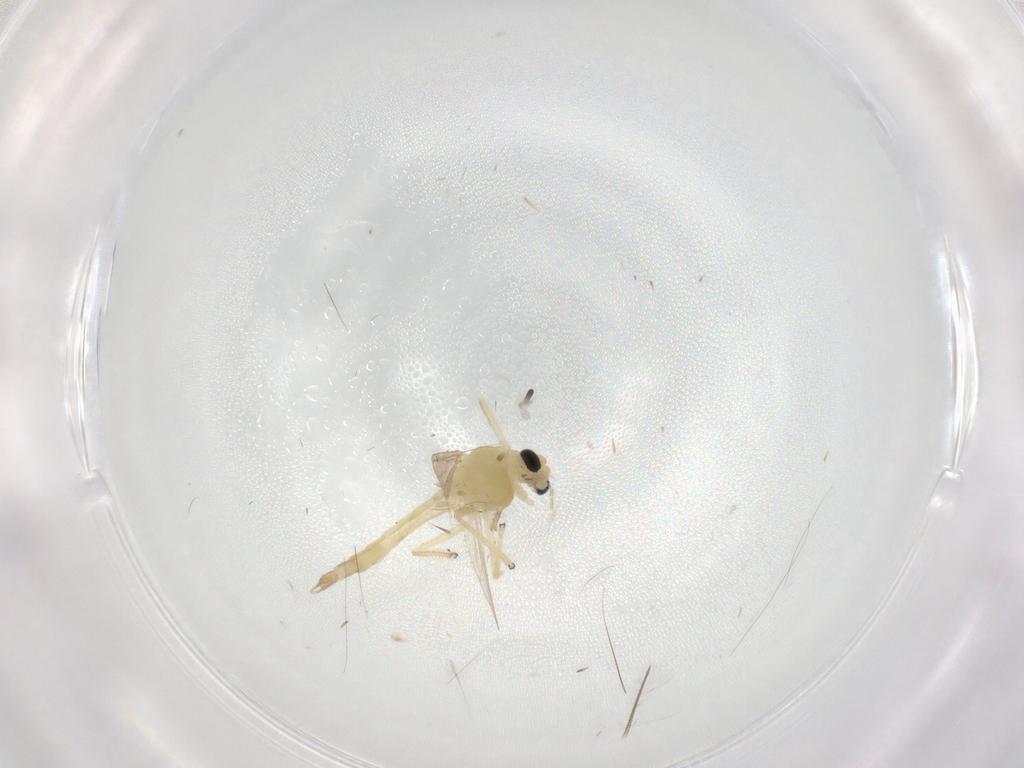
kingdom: Animalia
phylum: Arthropoda
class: Insecta
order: Diptera
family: Chironomidae
